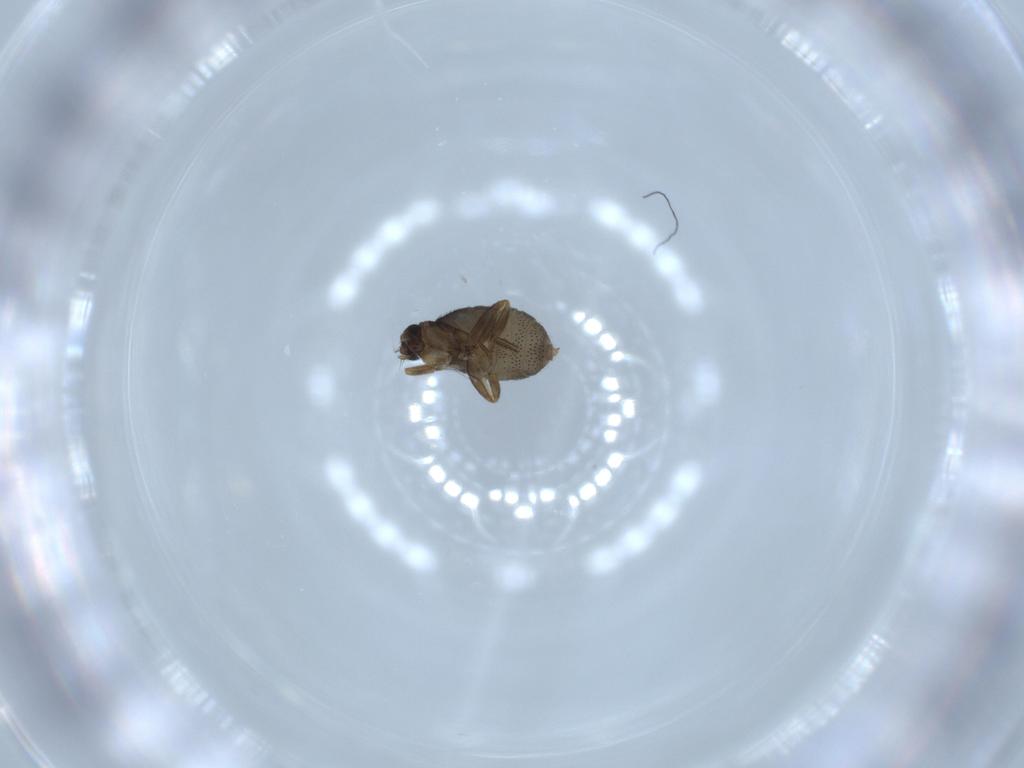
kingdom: Animalia
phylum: Arthropoda
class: Insecta
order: Diptera
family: Phoridae
